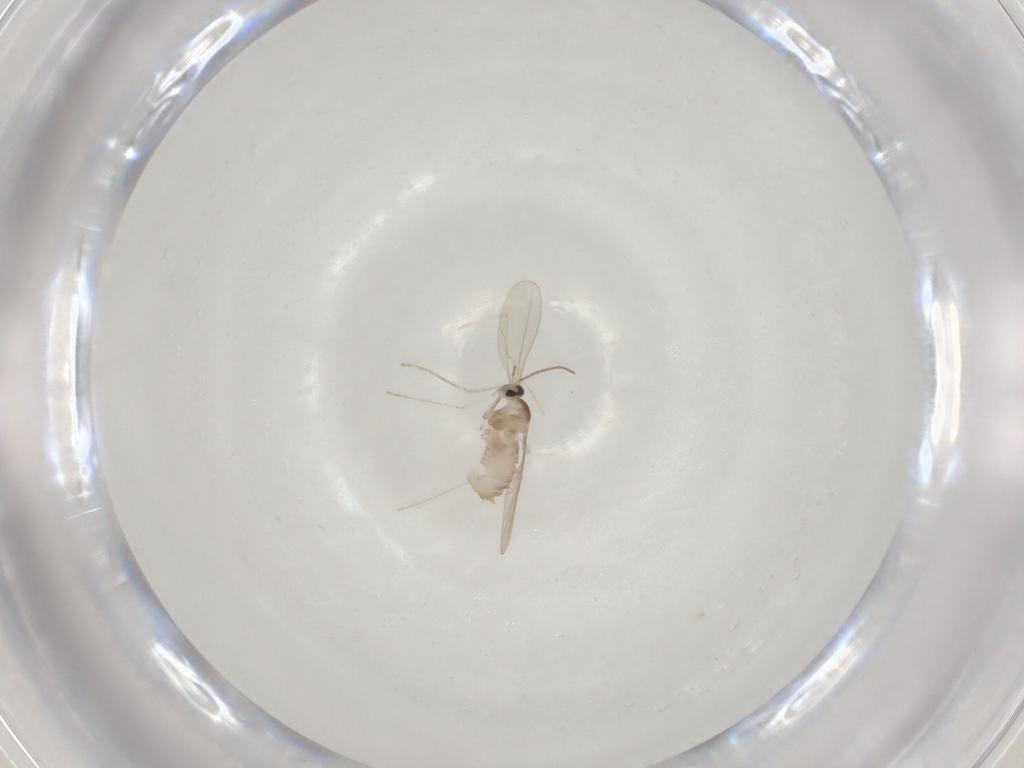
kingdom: Animalia
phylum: Arthropoda
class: Insecta
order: Diptera
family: Cecidomyiidae
